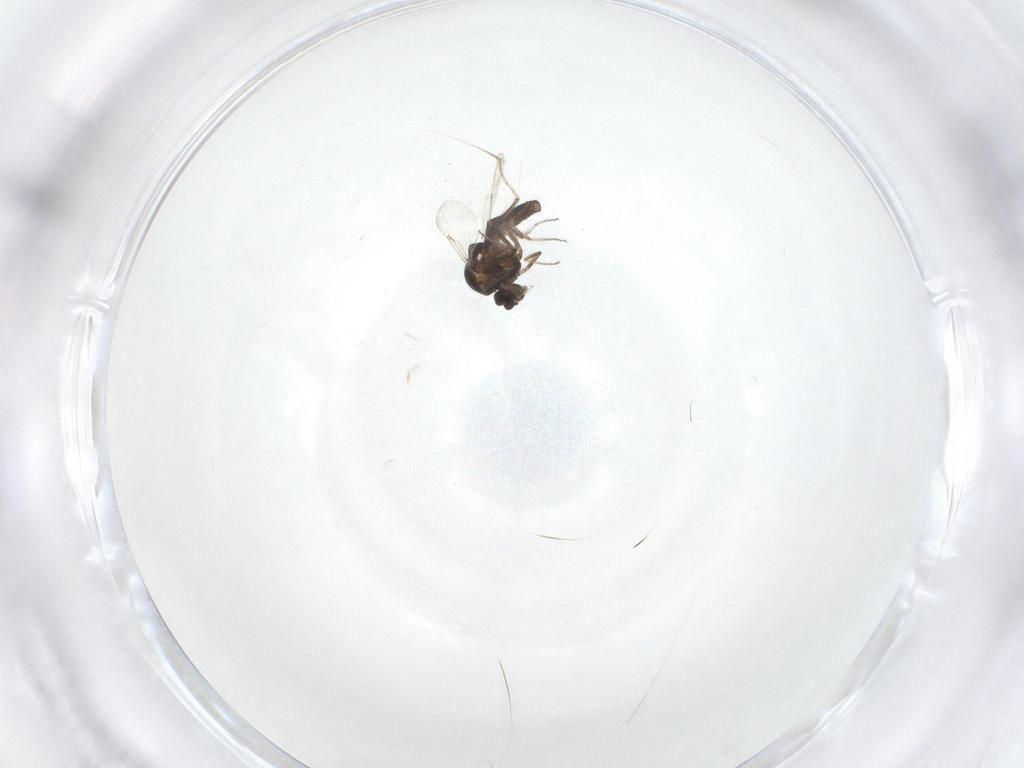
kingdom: Animalia
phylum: Arthropoda
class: Insecta
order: Diptera
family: Ceratopogonidae
